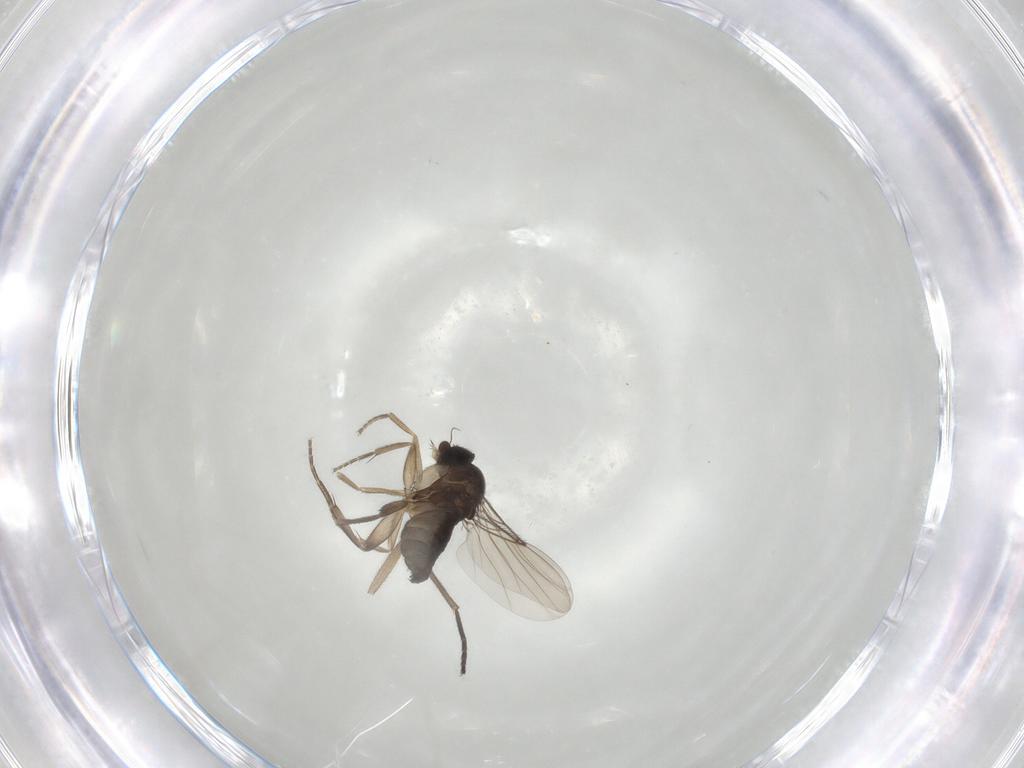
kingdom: Animalia
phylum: Arthropoda
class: Insecta
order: Diptera
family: Phoridae
